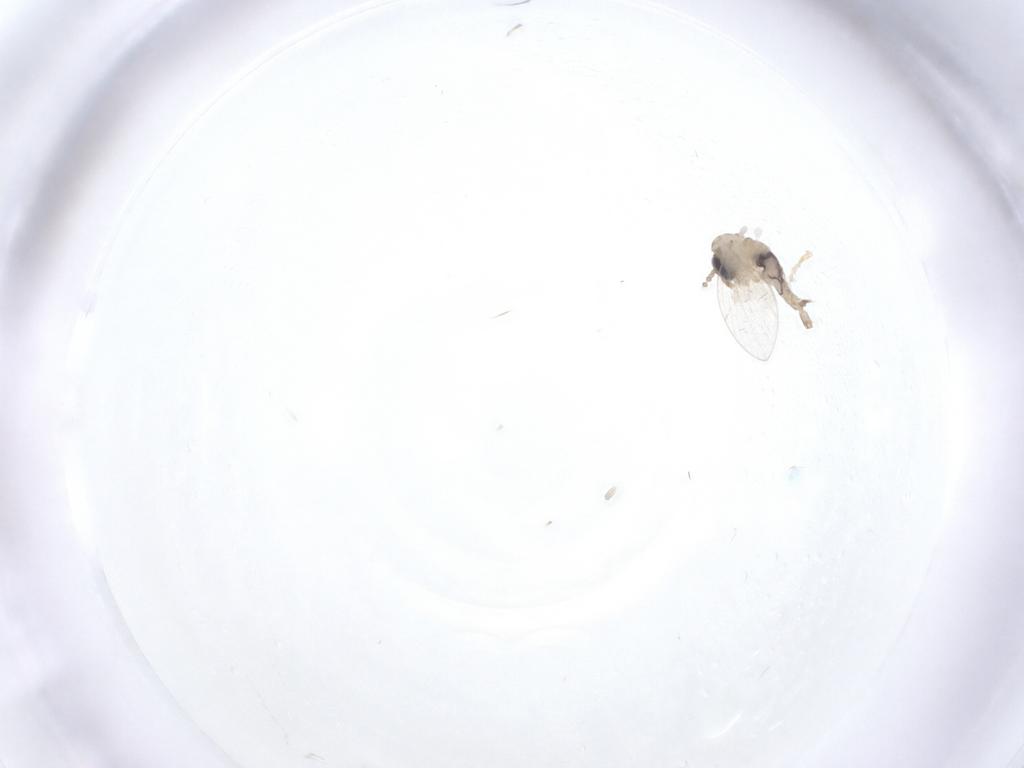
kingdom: Animalia
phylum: Arthropoda
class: Insecta
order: Diptera
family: Psychodidae
